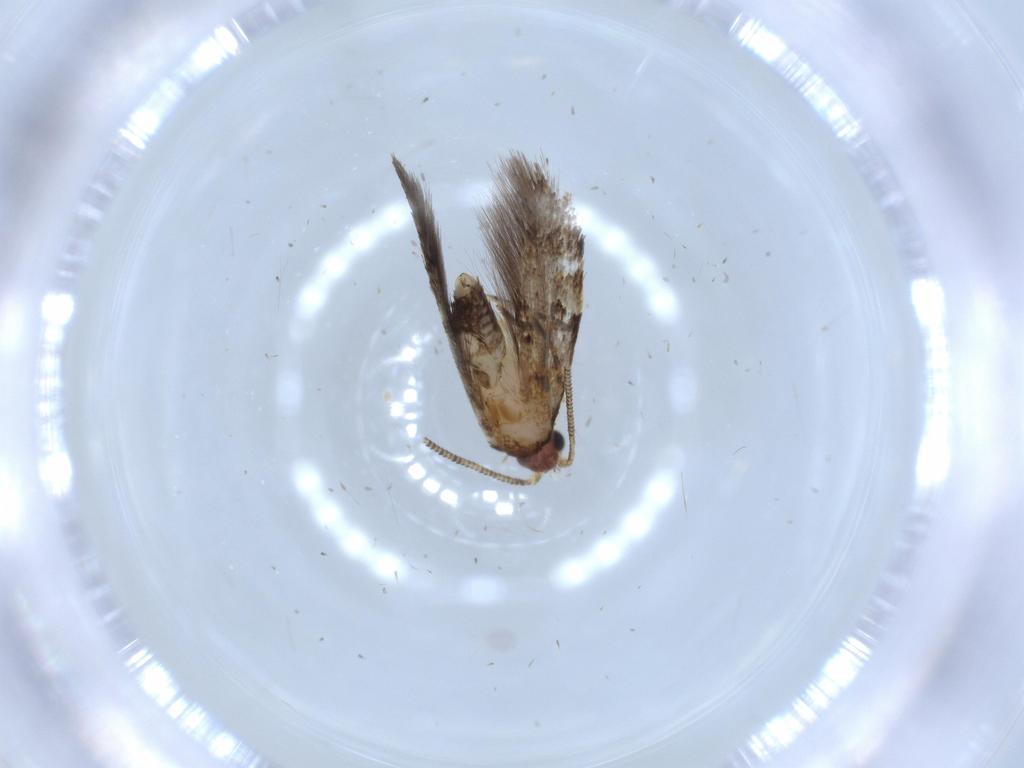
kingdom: Animalia
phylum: Arthropoda
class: Insecta
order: Lepidoptera
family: Tineidae
